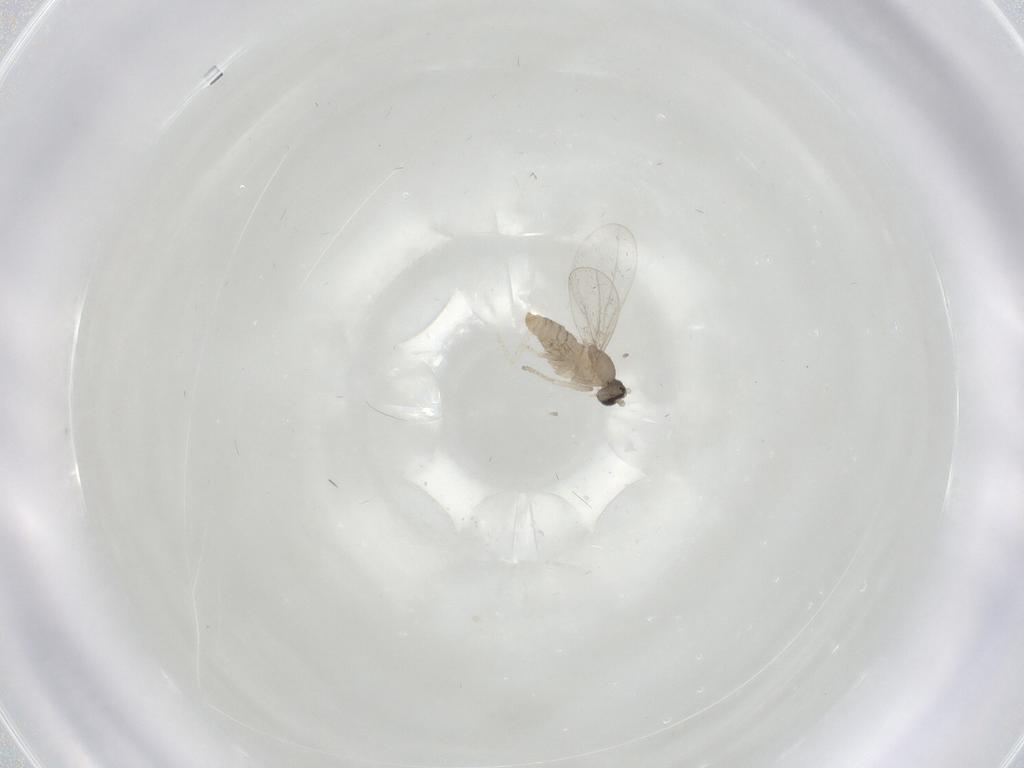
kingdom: Animalia
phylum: Arthropoda
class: Insecta
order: Diptera
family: Cecidomyiidae
